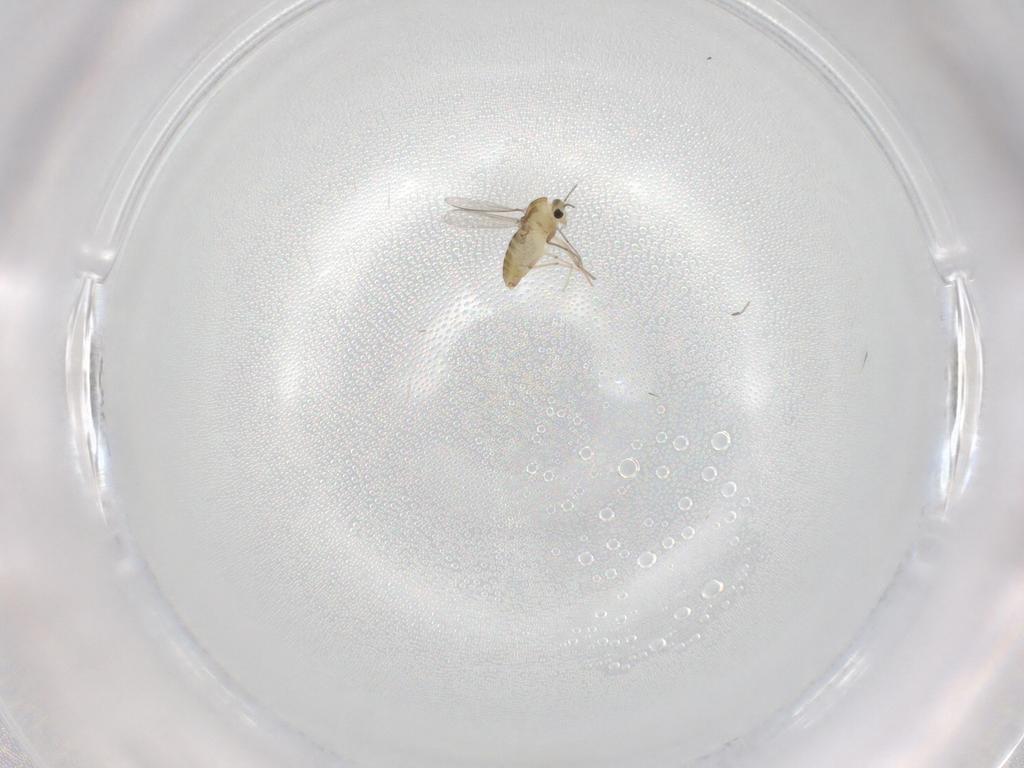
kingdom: Animalia
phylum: Arthropoda
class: Insecta
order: Diptera
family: Chironomidae
